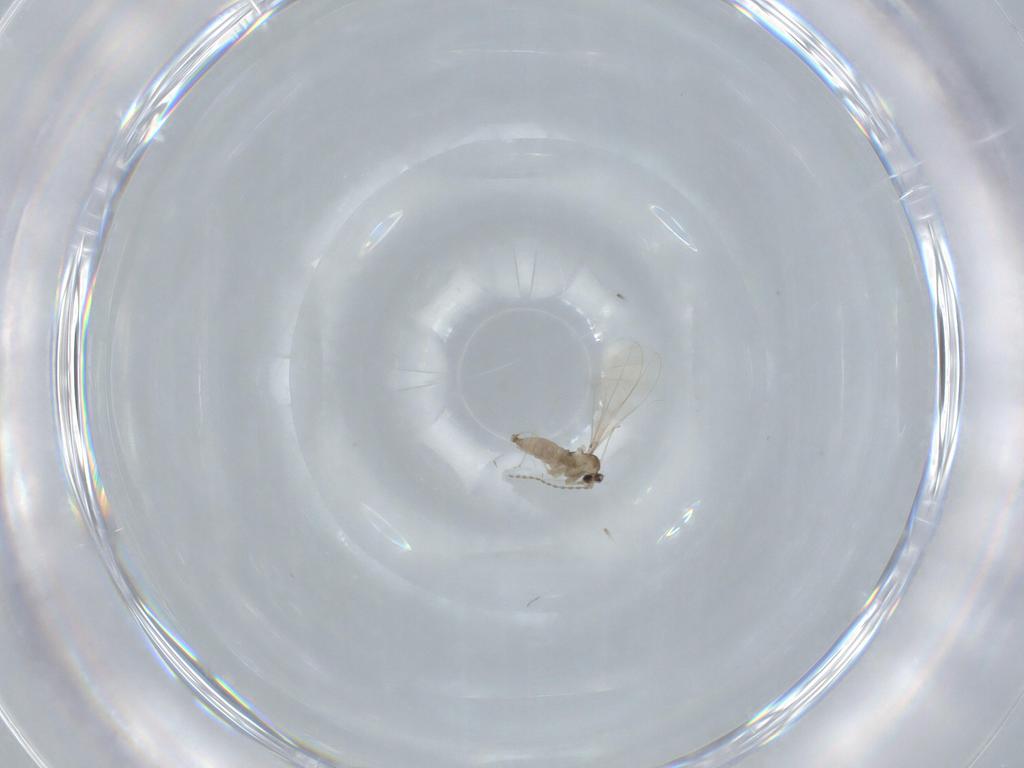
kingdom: Animalia
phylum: Arthropoda
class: Insecta
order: Diptera
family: Cecidomyiidae
